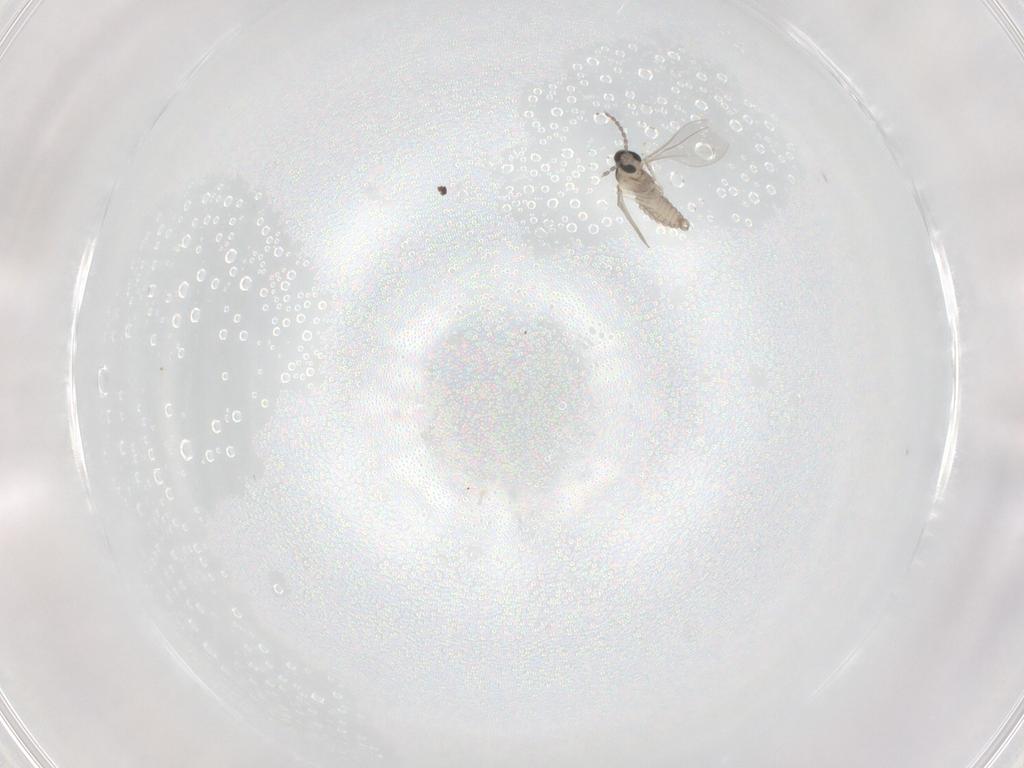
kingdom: Animalia
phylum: Arthropoda
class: Insecta
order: Diptera
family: Cecidomyiidae
